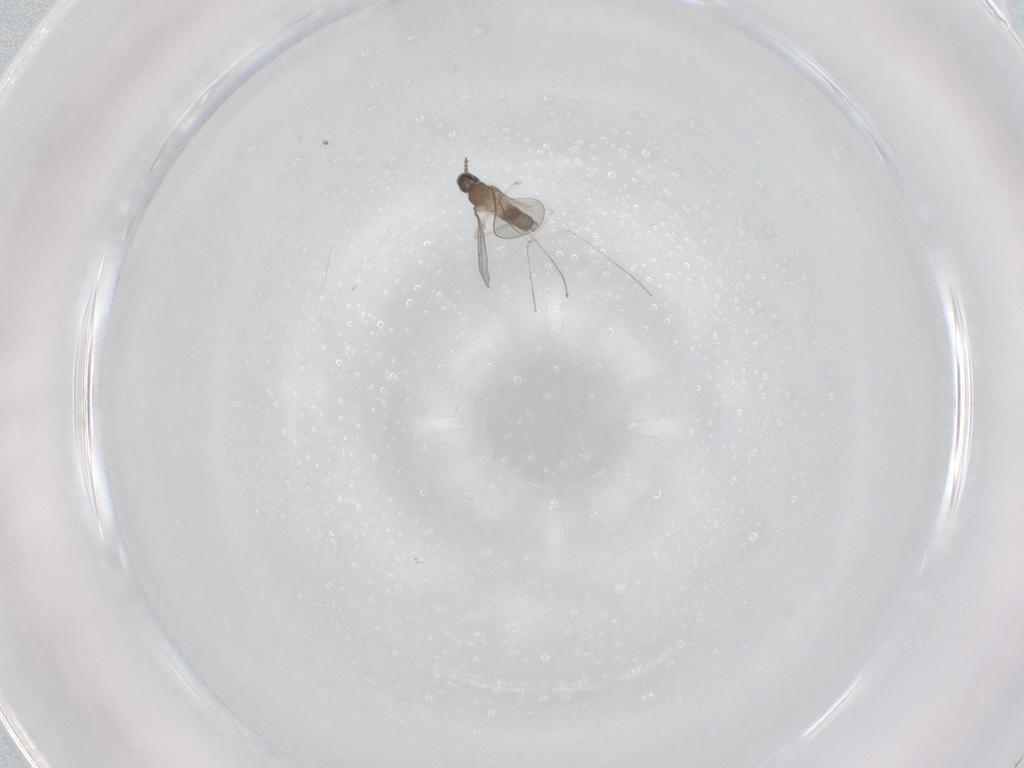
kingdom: Animalia
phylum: Arthropoda
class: Insecta
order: Diptera
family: Cecidomyiidae
